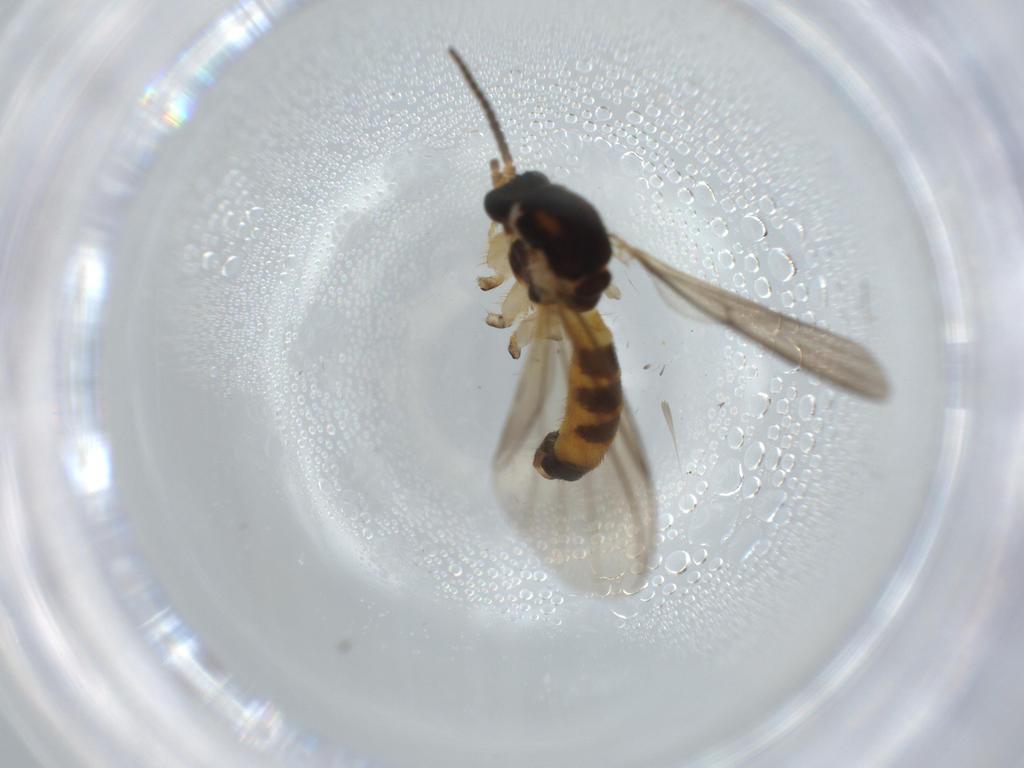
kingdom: Animalia
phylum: Arthropoda
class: Insecta
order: Diptera
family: Mycetophilidae
